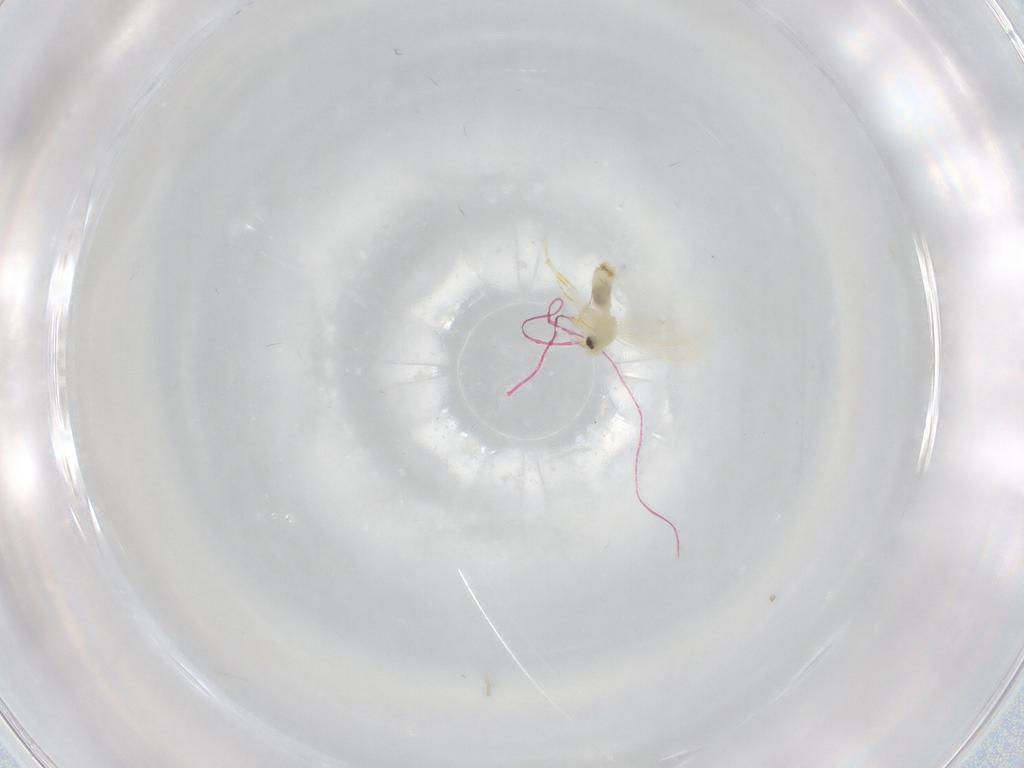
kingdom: Animalia
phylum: Arthropoda
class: Insecta
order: Hemiptera
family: Aleyrodidae
